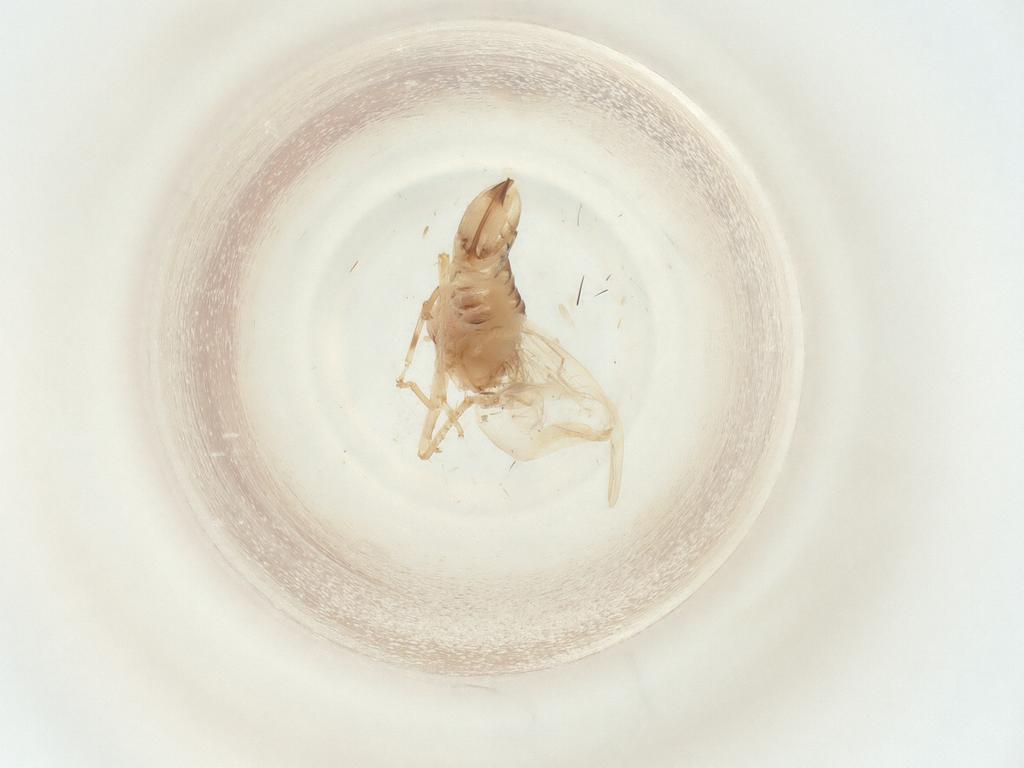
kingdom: Animalia
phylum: Arthropoda
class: Insecta
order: Hemiptera
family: Cicadellidae
